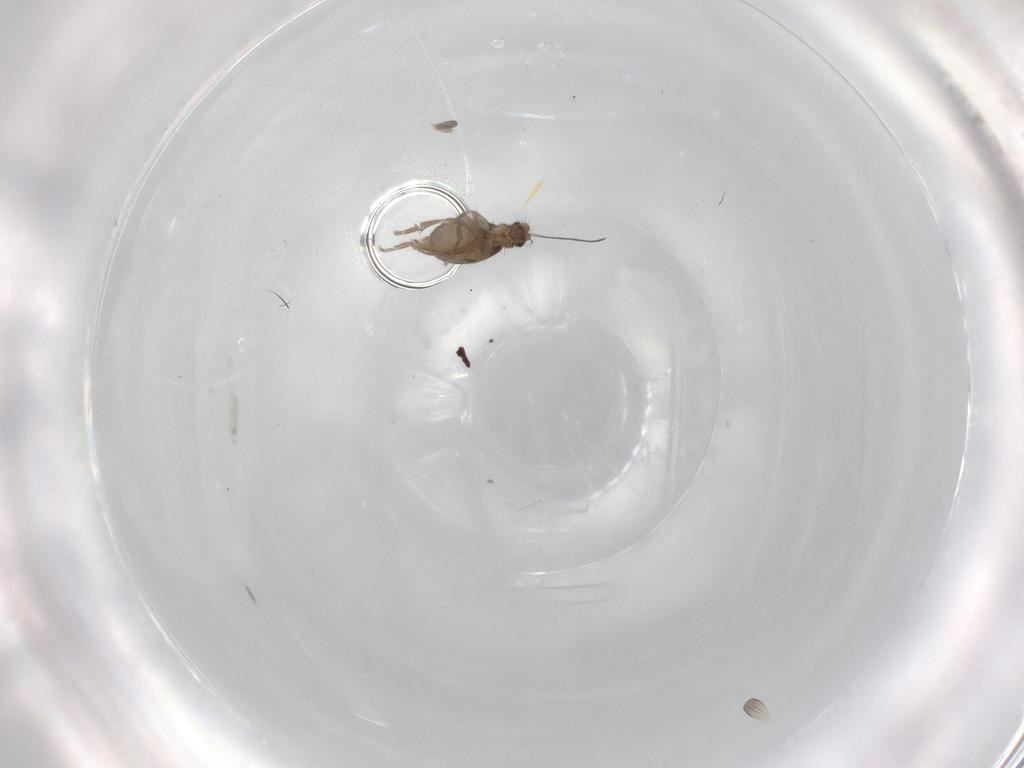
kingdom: Animalia
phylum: Arthropoda
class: Insecta
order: Diptera
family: Phoridae
